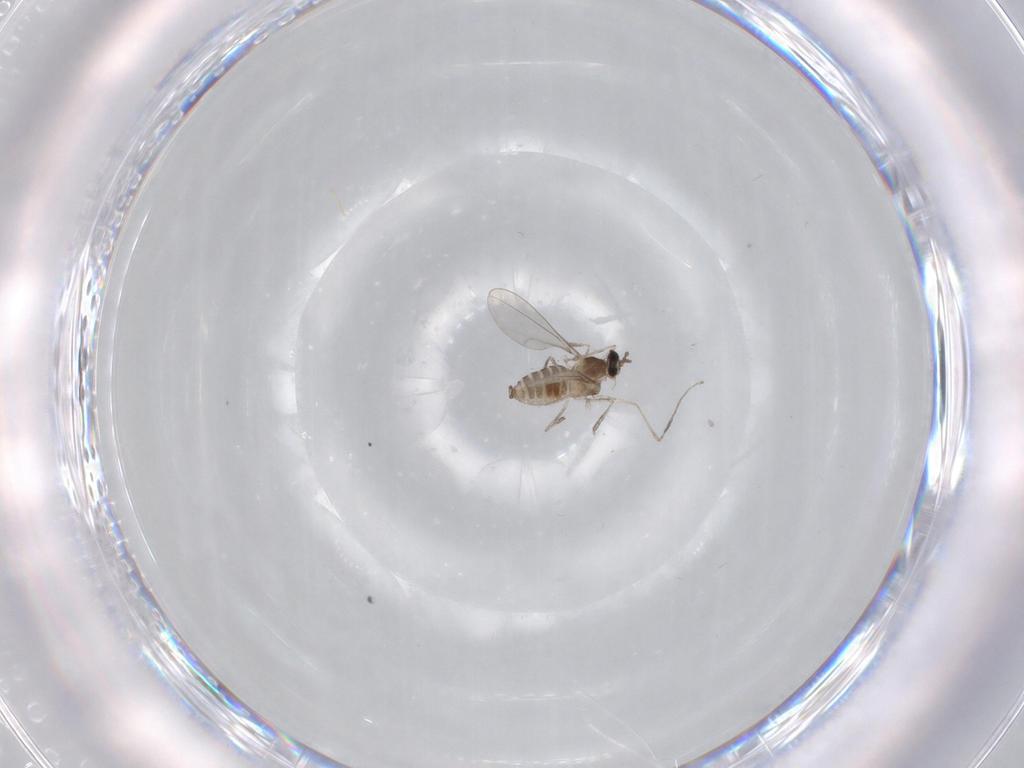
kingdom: Animalia
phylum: Arthropoda
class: Insecta
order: Diptera
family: Cecidomyiidae
